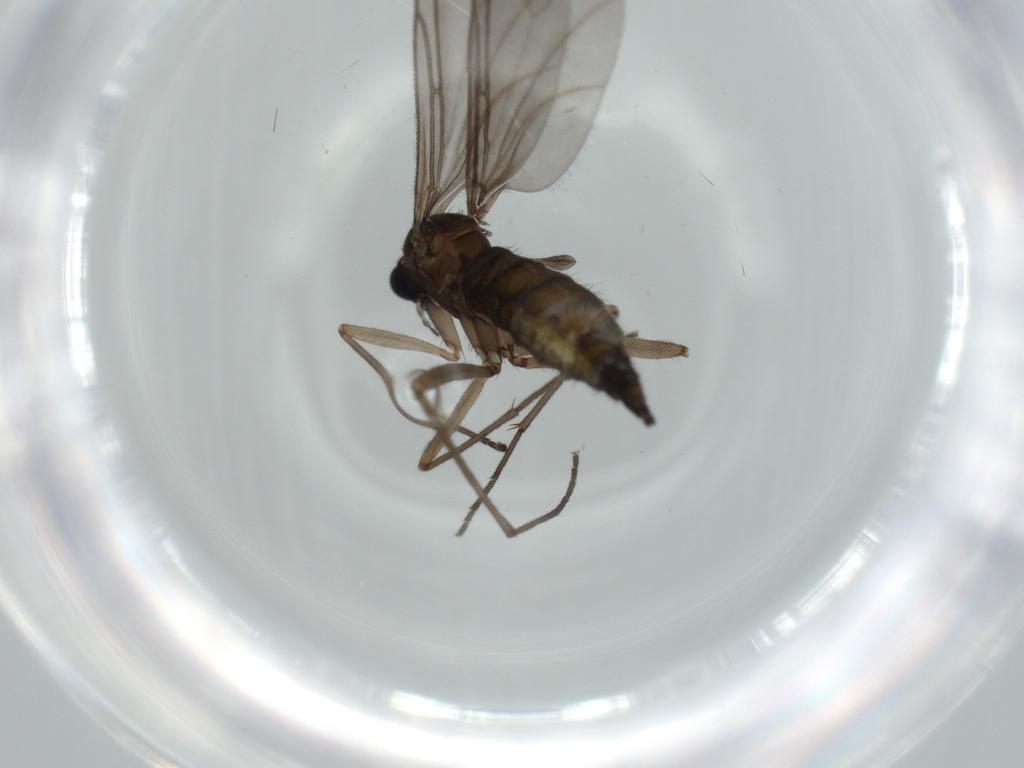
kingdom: Animalia
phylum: Arthropoda
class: Insecta
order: Diptera
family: Sciaridae
